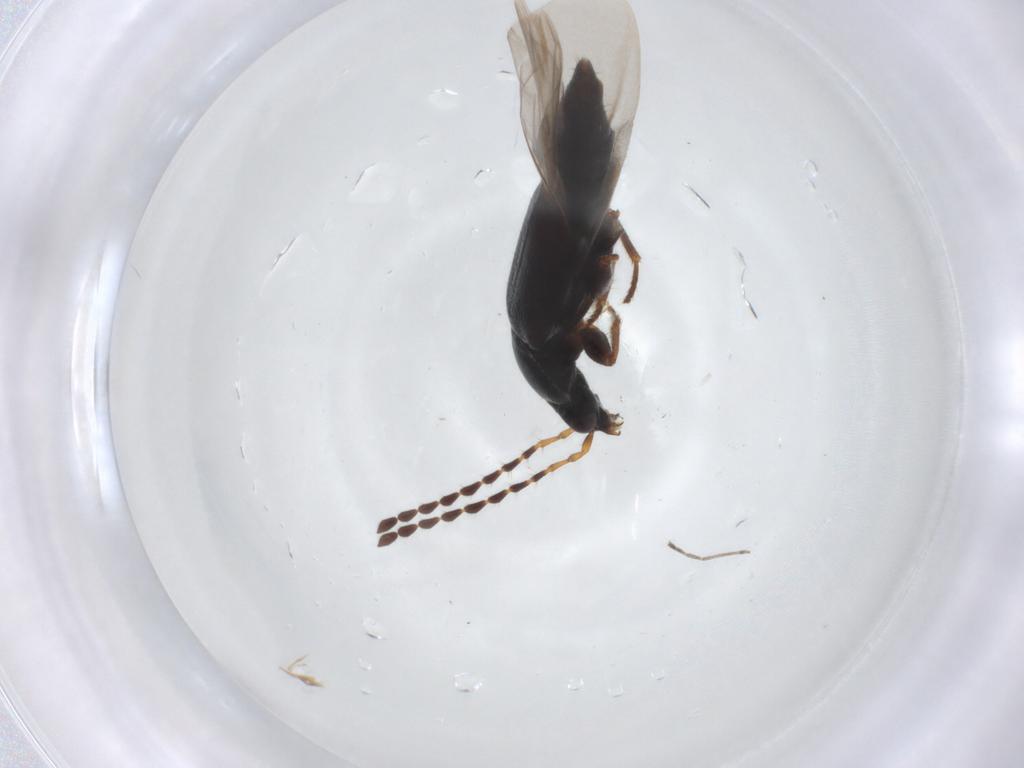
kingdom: Animalia
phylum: Arthropoda
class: Insecta
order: Coleoptera
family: Staphylinidae
